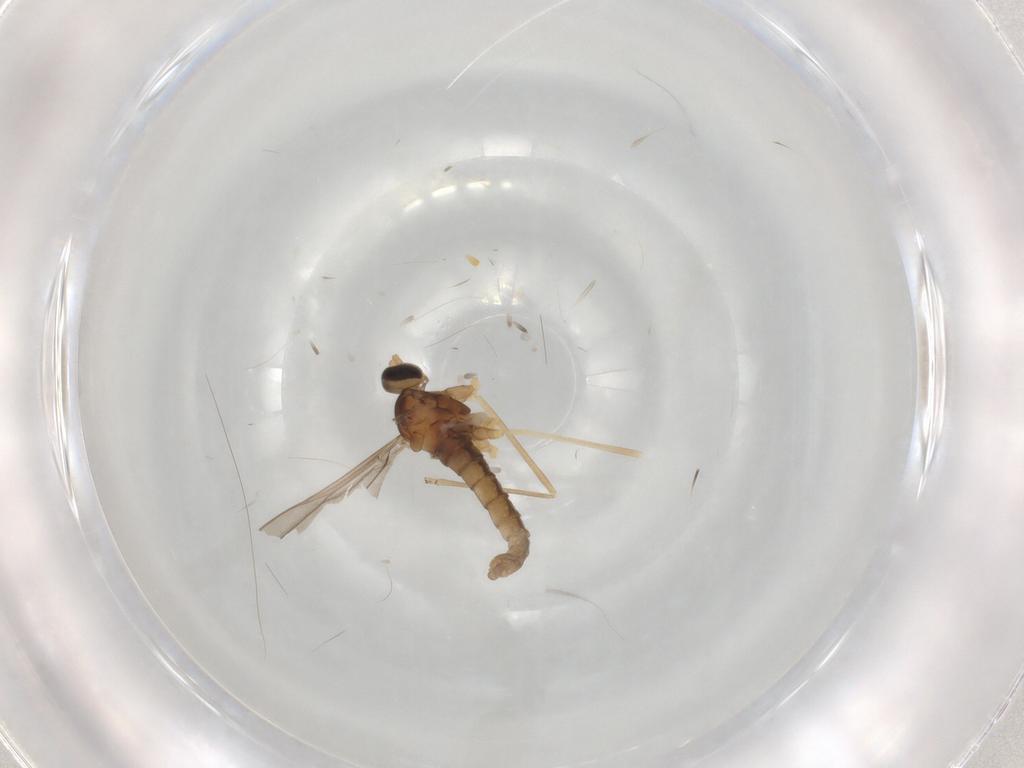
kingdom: Animalia
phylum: Arthropoda
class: Insecta
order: Diptera
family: Cecidomyiidae
